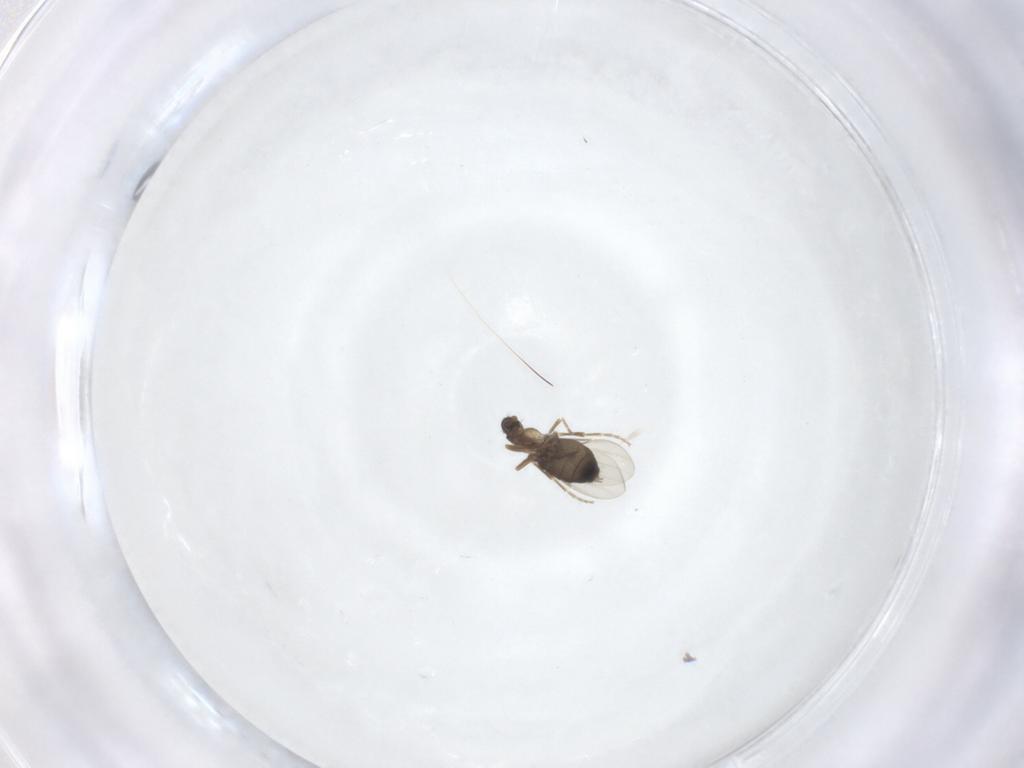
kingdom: Animalia
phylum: Arthropoda
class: Insecta
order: Diptera
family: Phoridae
